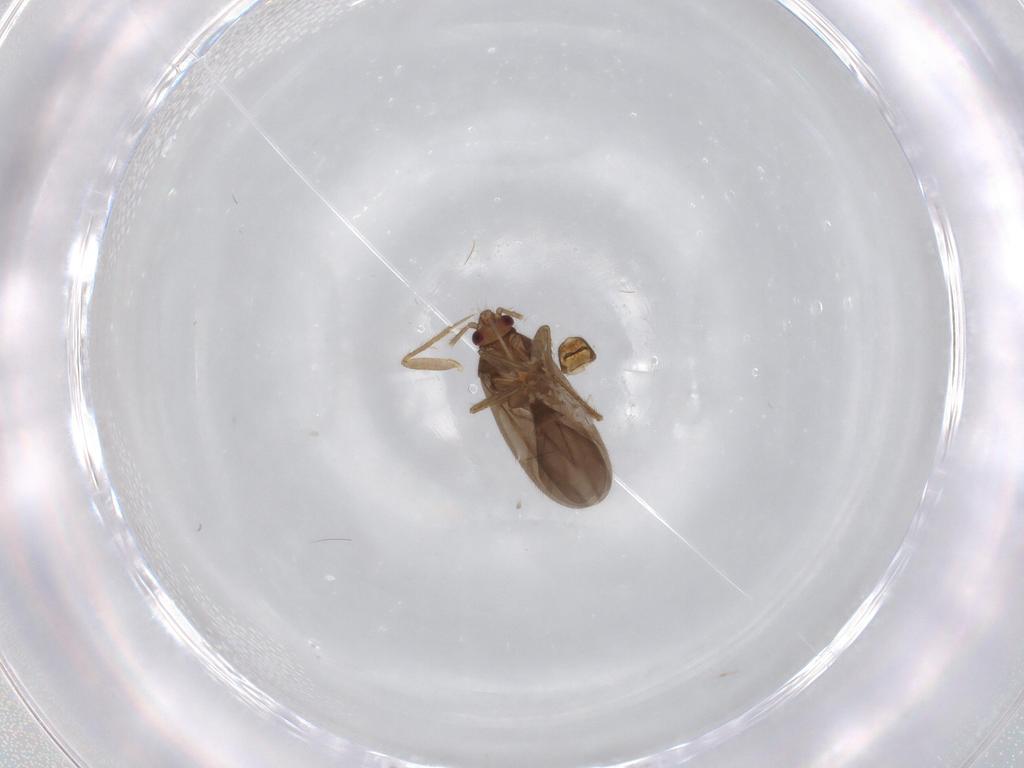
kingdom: Animalia
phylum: Arthropoda
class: Insecta
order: Hemiptera
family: Ceratocombidae
